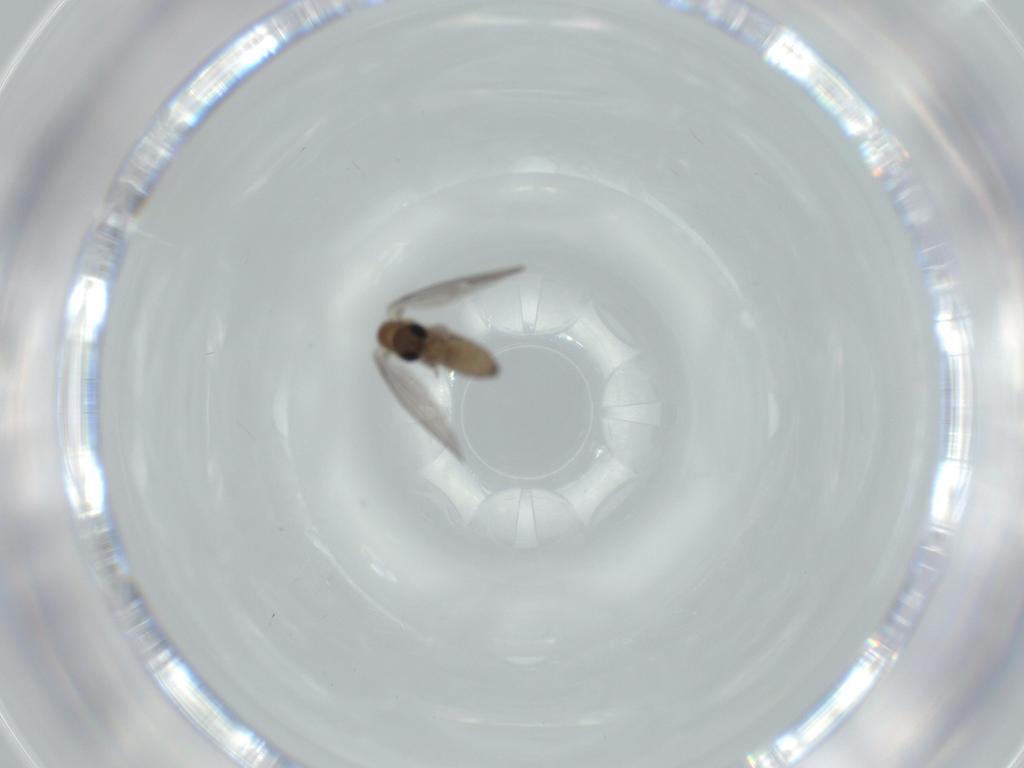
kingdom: Animalia
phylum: Arthropoda
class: Insecta
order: Diptera
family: Psychodidae
